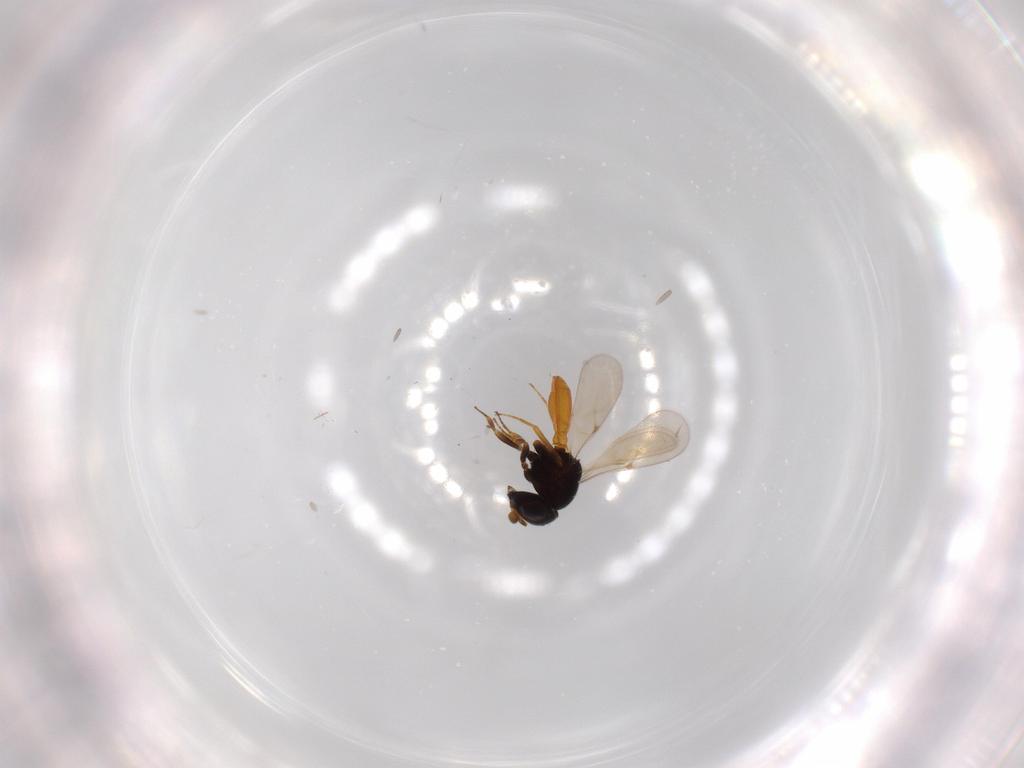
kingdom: Animalia
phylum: Arthropoda
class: Insecta
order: Hymenoptera
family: Scelionidae
